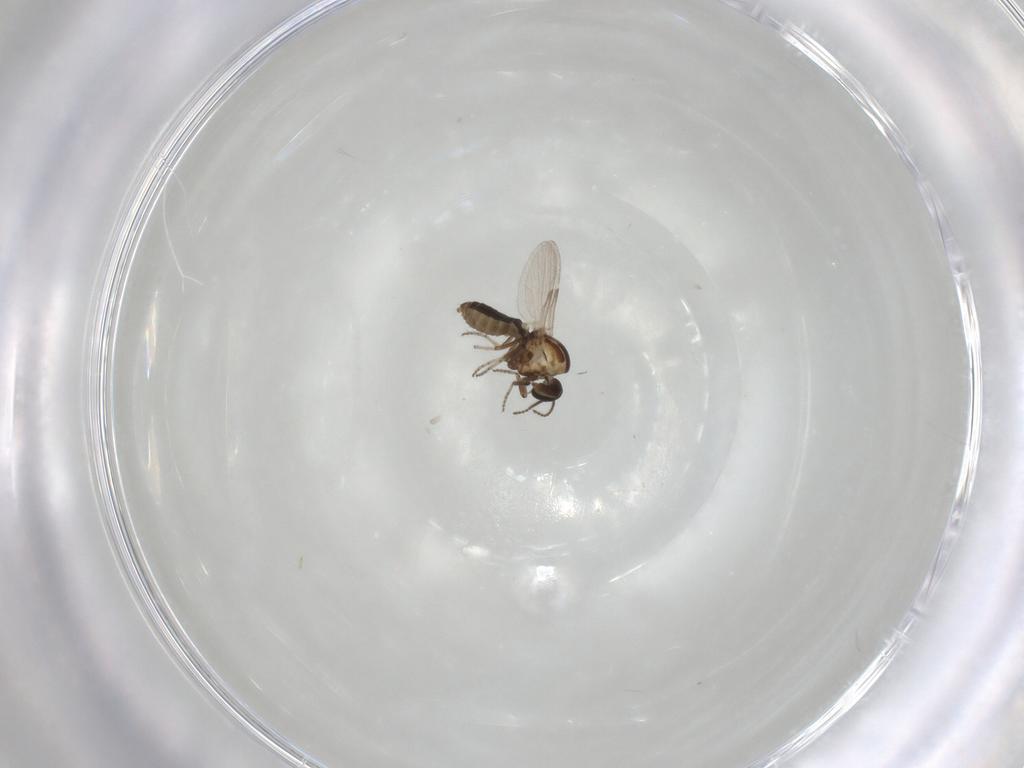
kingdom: Animalia
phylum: Arthropoda
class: Insecta
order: Diptera
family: Ceratopogonidae
